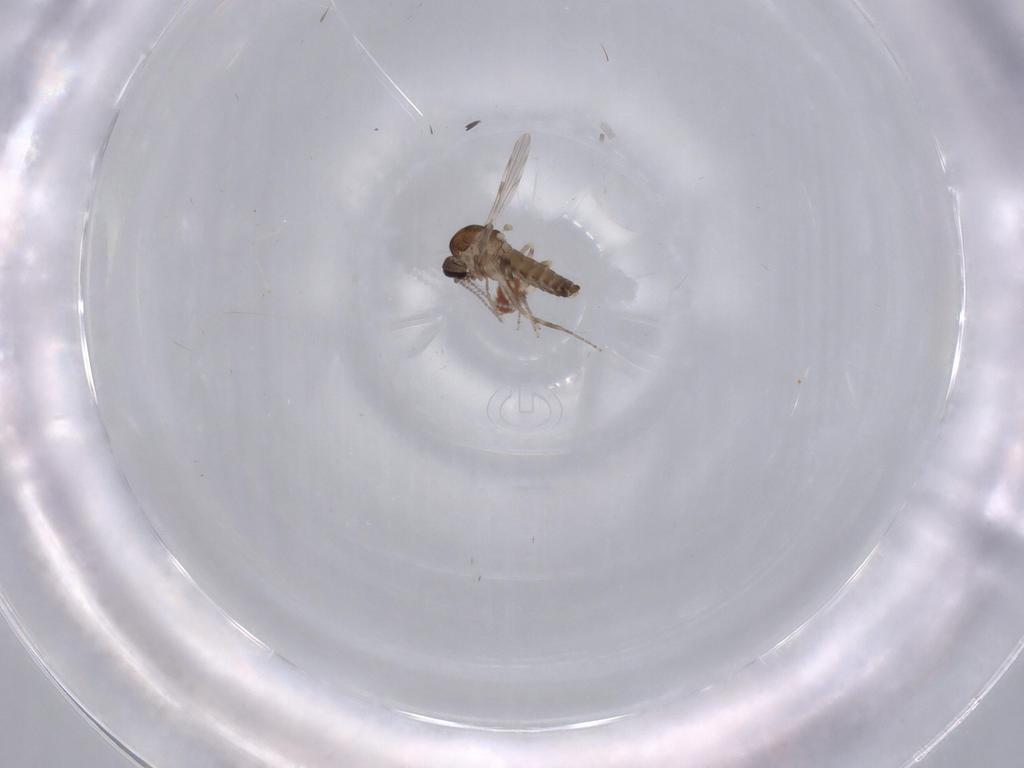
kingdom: Animalia
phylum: Arthropoda
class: Insecta
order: Diptera
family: Ceratopogonidae
